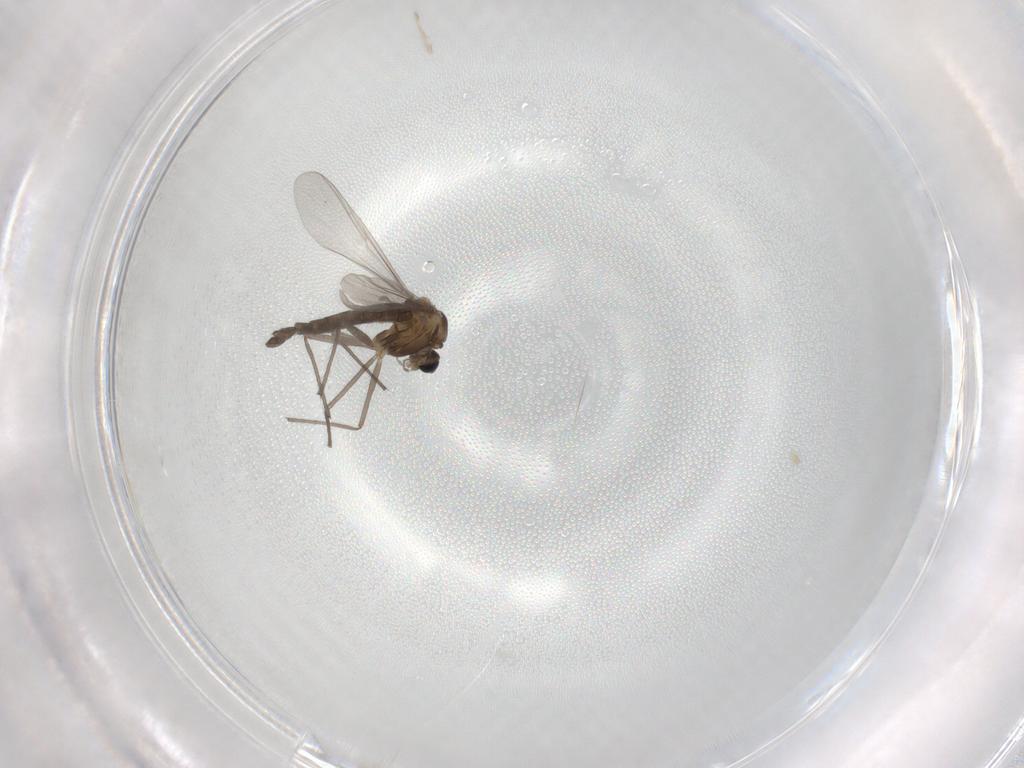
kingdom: Animalia
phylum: Arthropoda
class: Insecta
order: Diptera
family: Chironomidae
